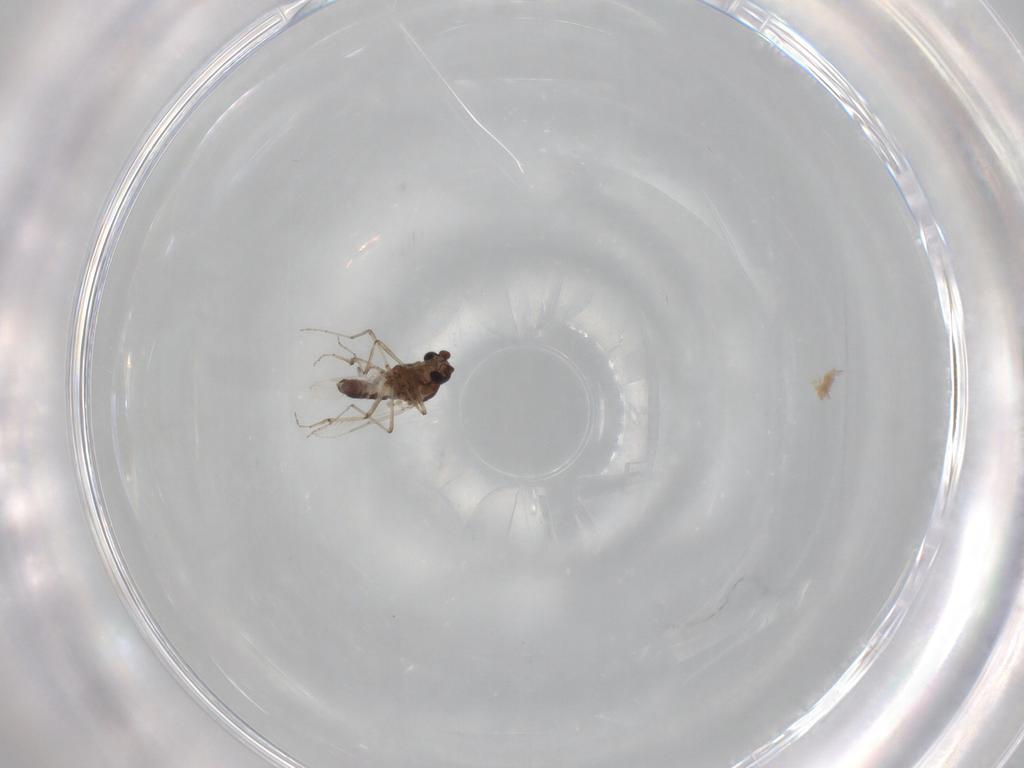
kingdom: Animalia
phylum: Arthropoda
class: Insecta
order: Diptera
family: Ceratopogonidae
